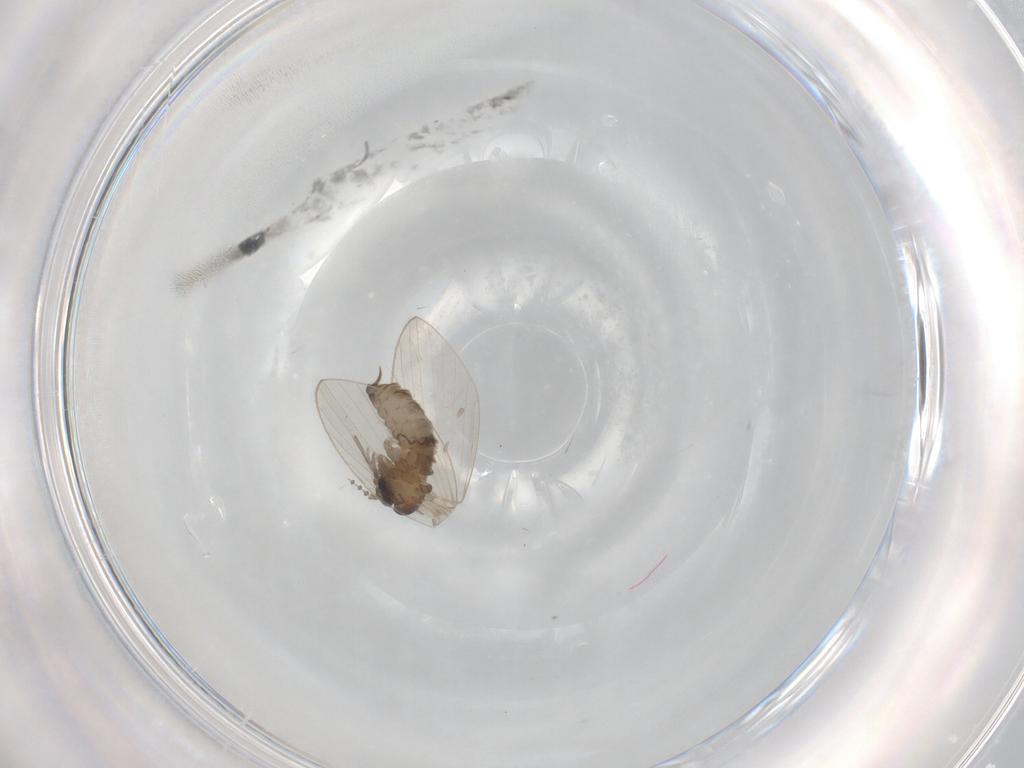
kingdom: Animalia
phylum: Arthropoda
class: Insecta
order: Diptera
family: Psychodidae
